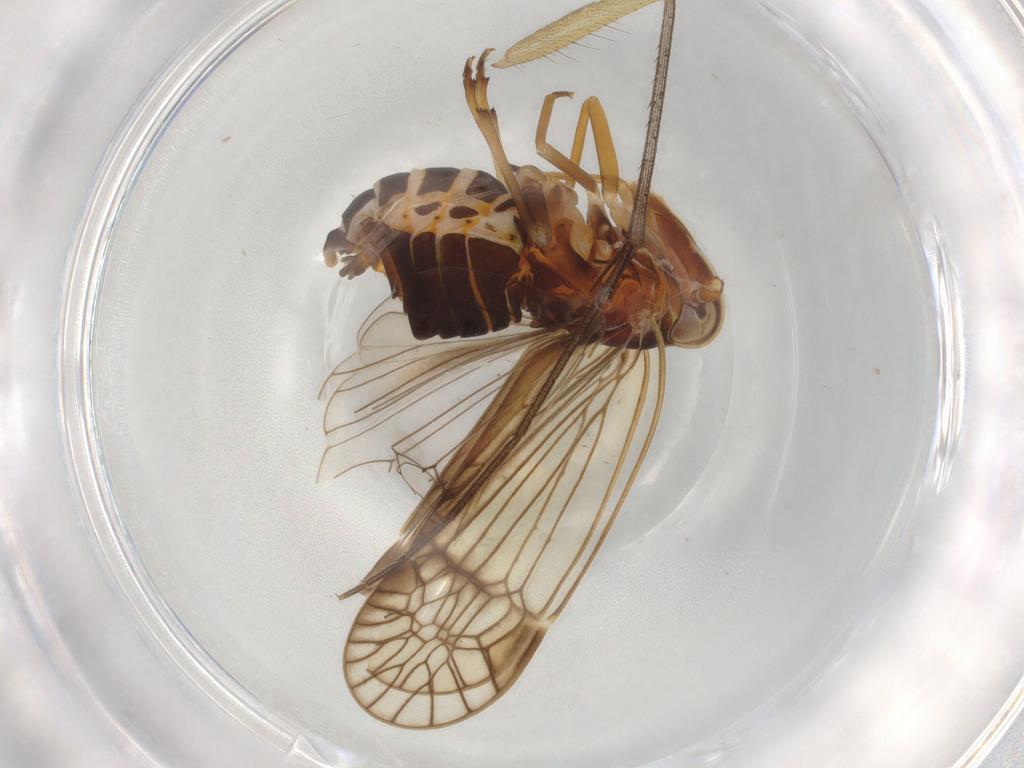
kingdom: Animalia
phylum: Arthropoda
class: Insecta
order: Hemiptera
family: Kinnaridae
